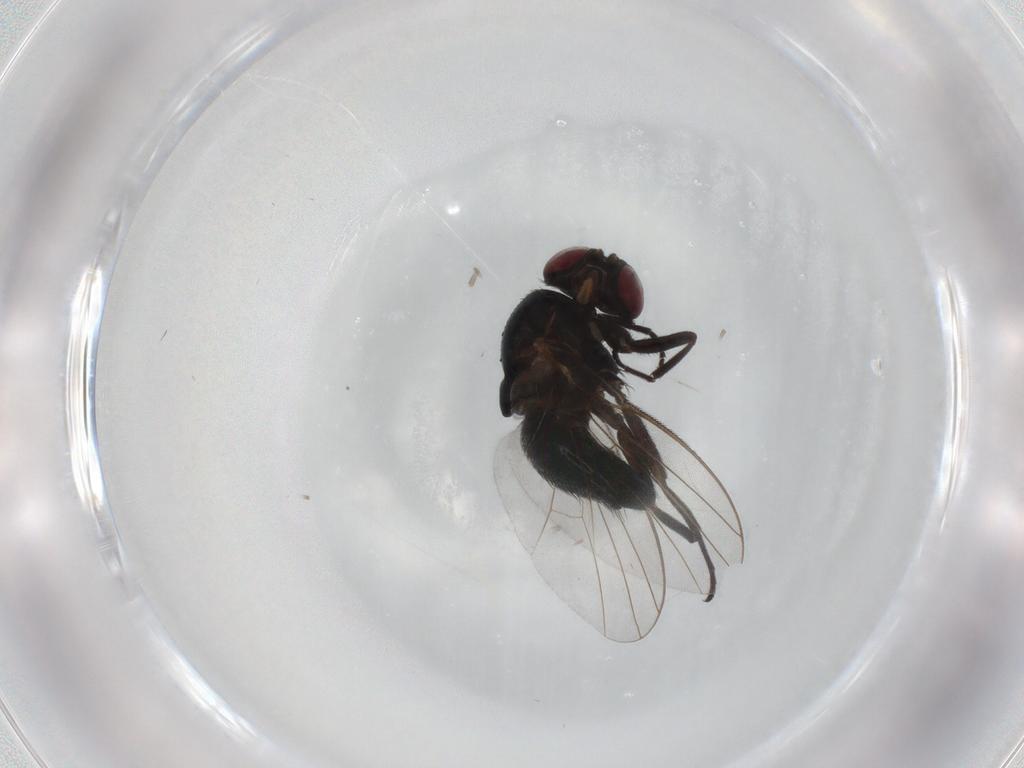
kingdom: Animalia
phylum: Arthropoda
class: Insecta
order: Diptera
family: Agromyzidae
